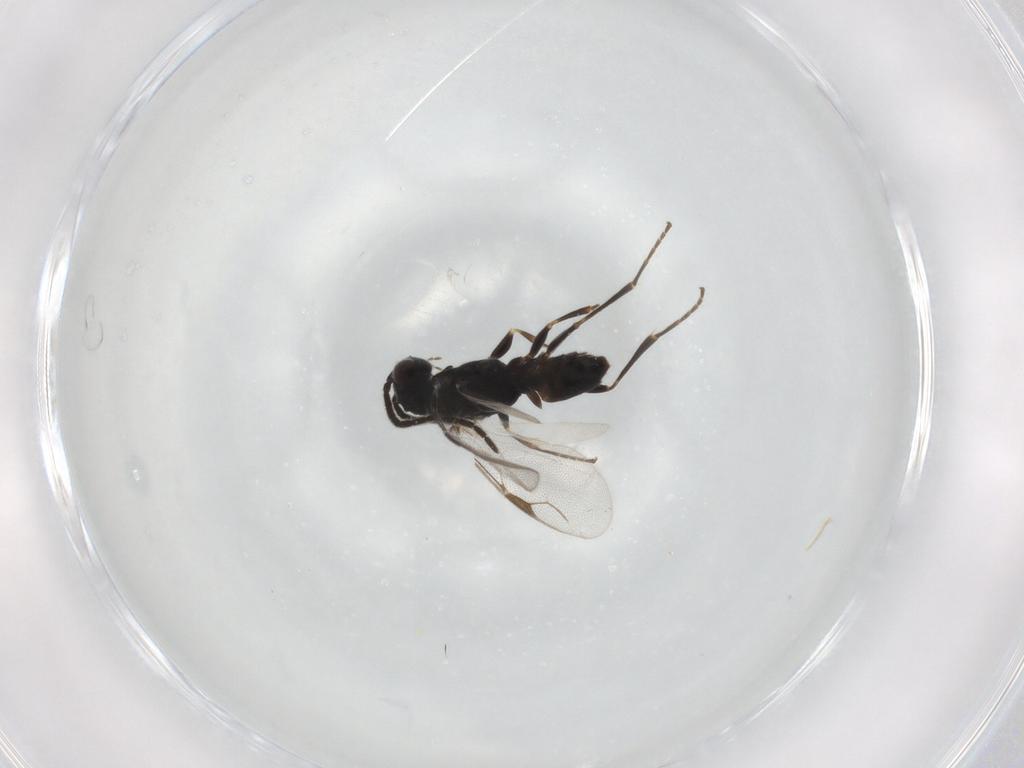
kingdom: Animalia
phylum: Arthropoda
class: Insecta
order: Hymenoptera
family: Dryinidae
